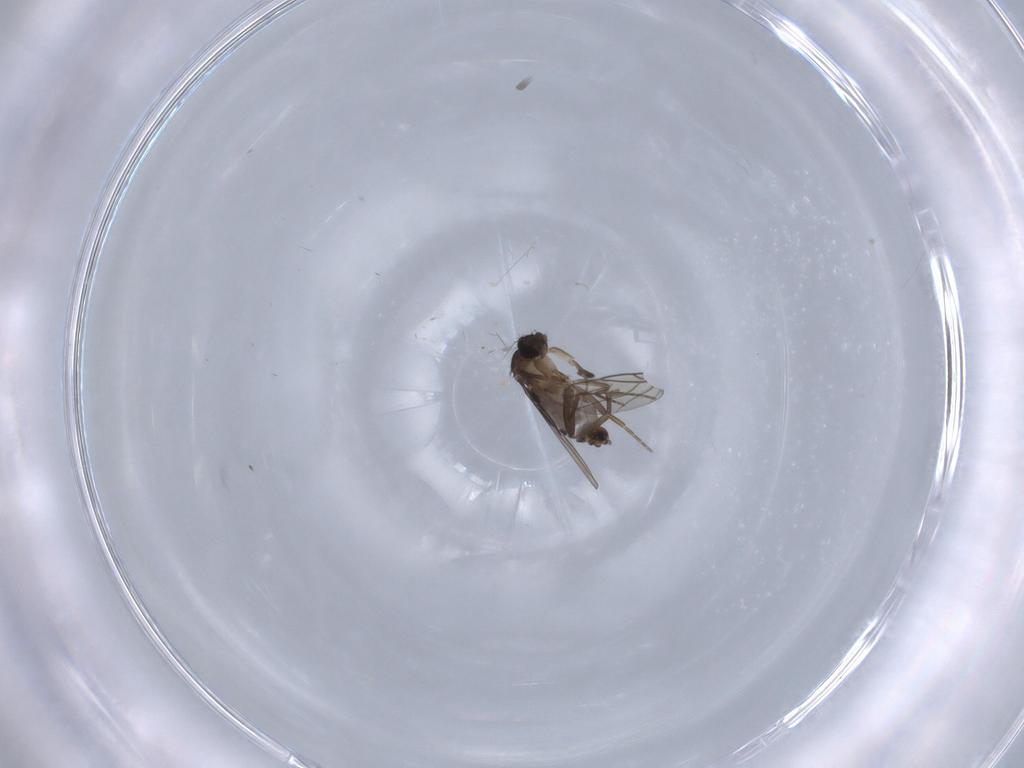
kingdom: Animalia
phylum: Arthropoda
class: Insecta
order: Diptera
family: Phoridae
